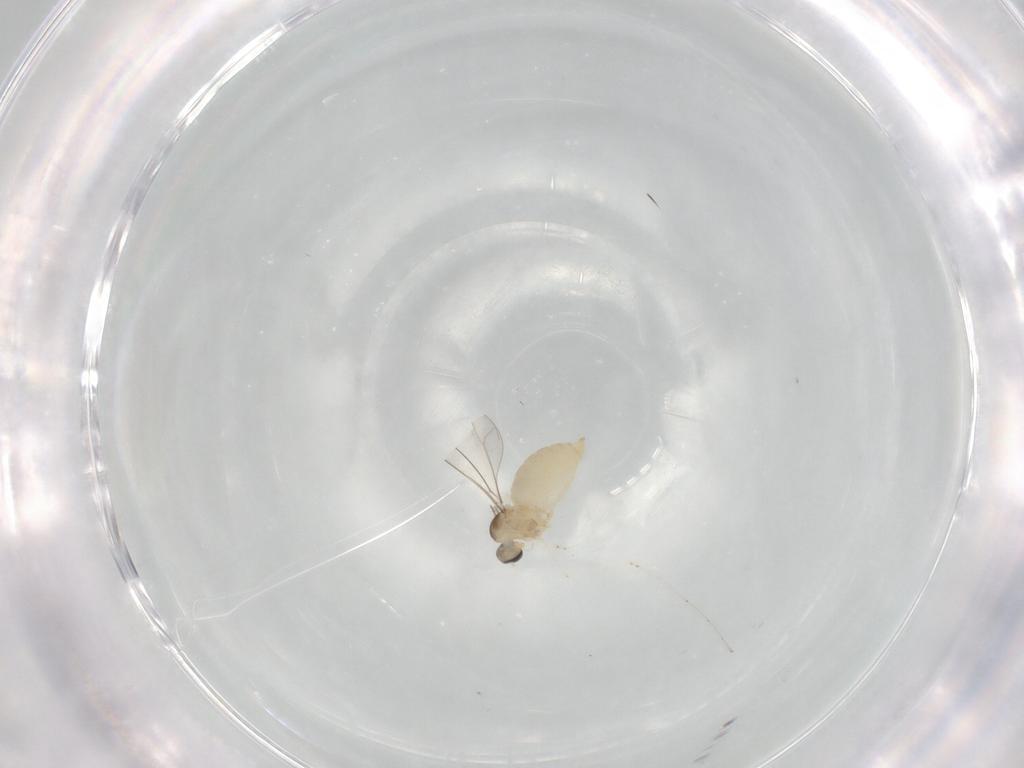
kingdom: Animalia
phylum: Arthropoda
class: Insecta
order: Diptera
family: Cecidomyiidae
